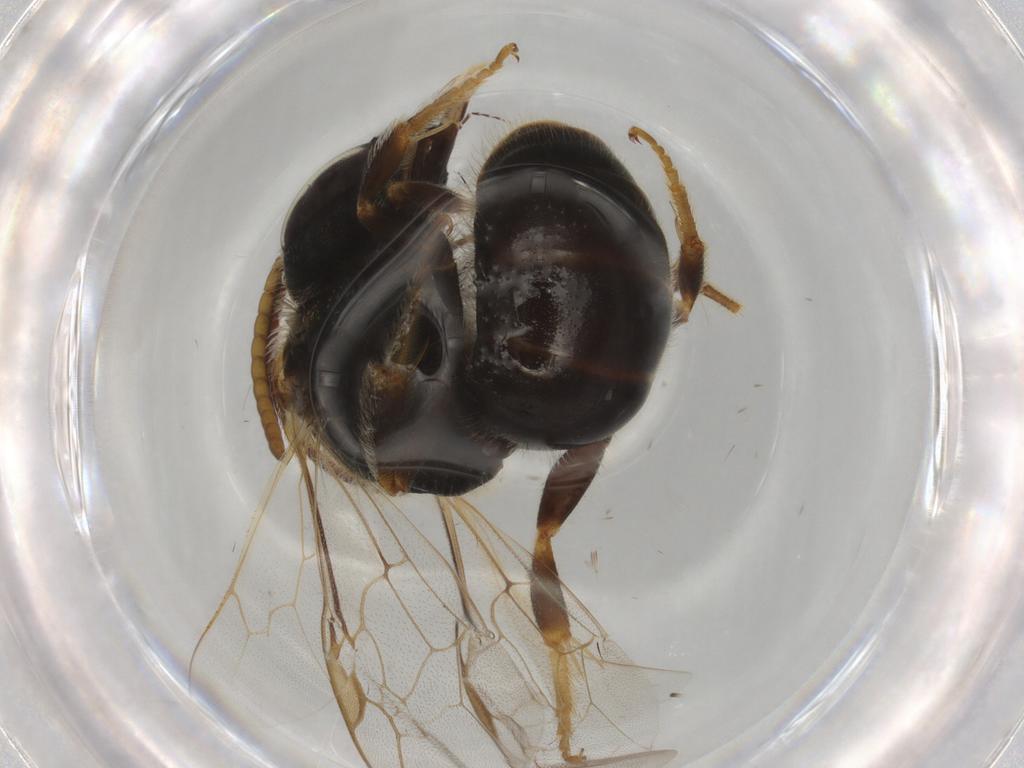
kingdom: Animalia
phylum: Arthropoda
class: Insecta
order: Hymenoptera
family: Halictidae
